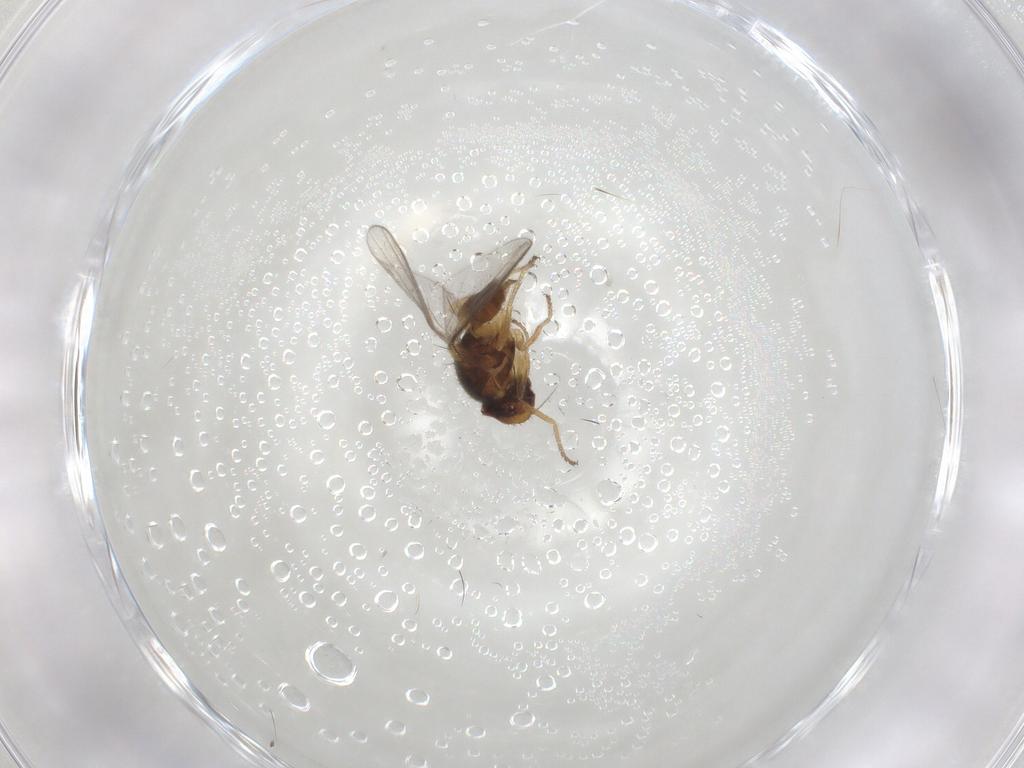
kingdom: Animalia
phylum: Arthropoda
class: Insecta
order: Diptera
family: Chloropidae
